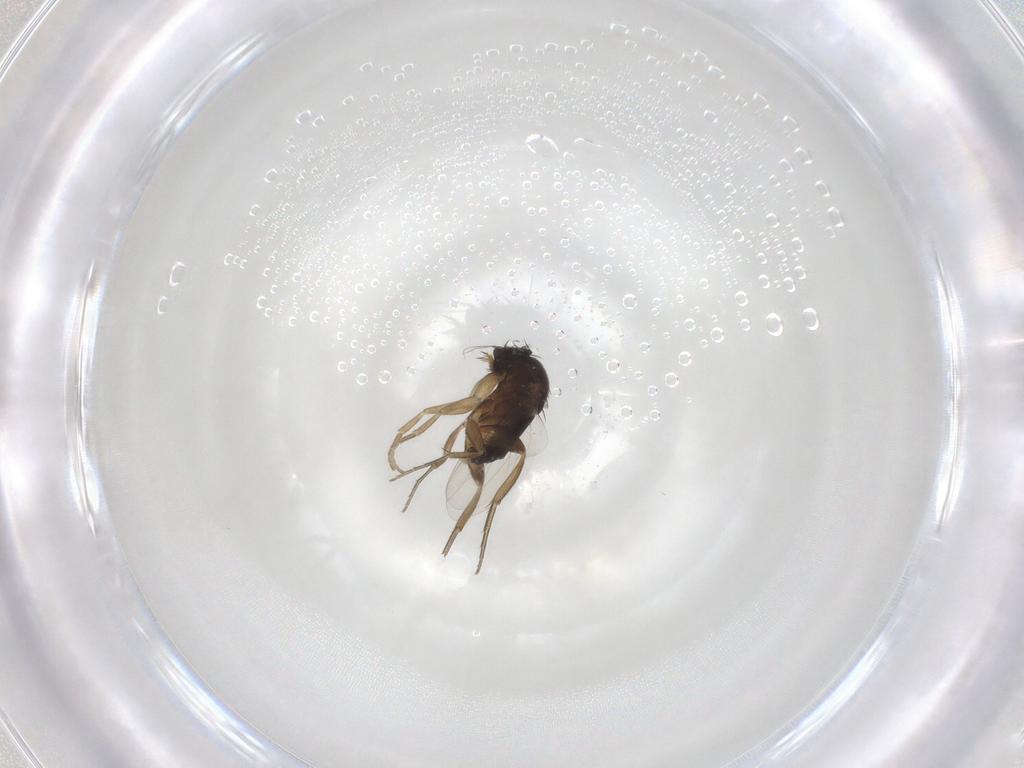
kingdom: Animalia
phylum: Arthropoda
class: Insecta
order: Diptera
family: Phoridae
